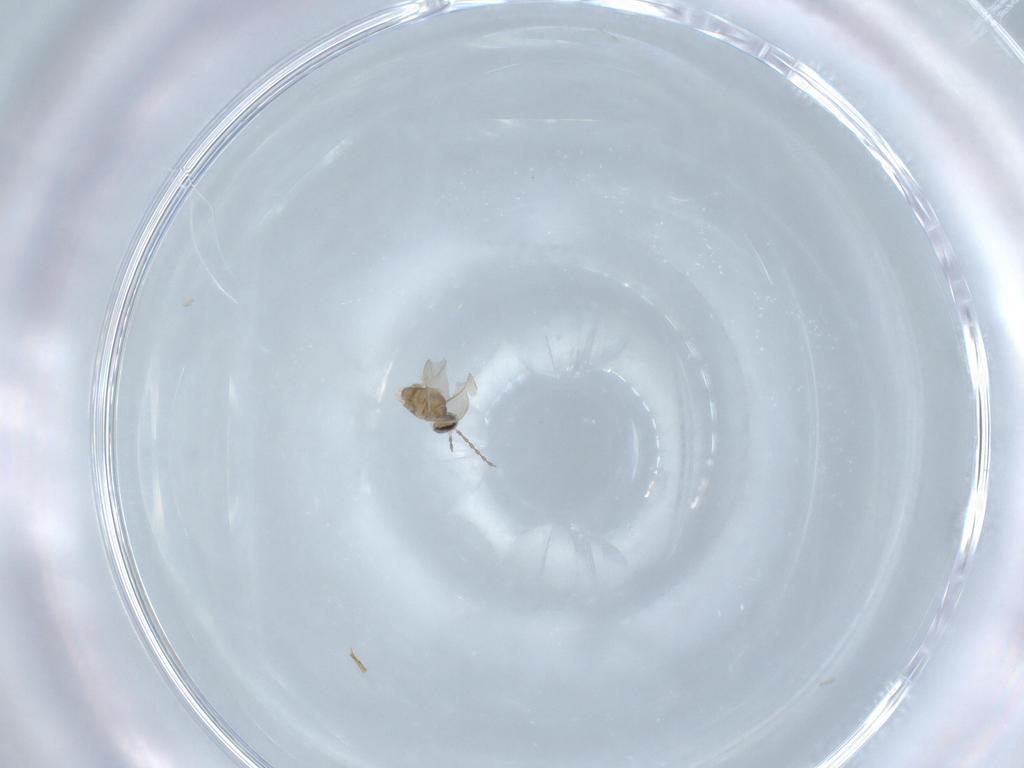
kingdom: Animalia
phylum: Arthropoda
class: Insecta
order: Diptera
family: Cecidomyiidae
